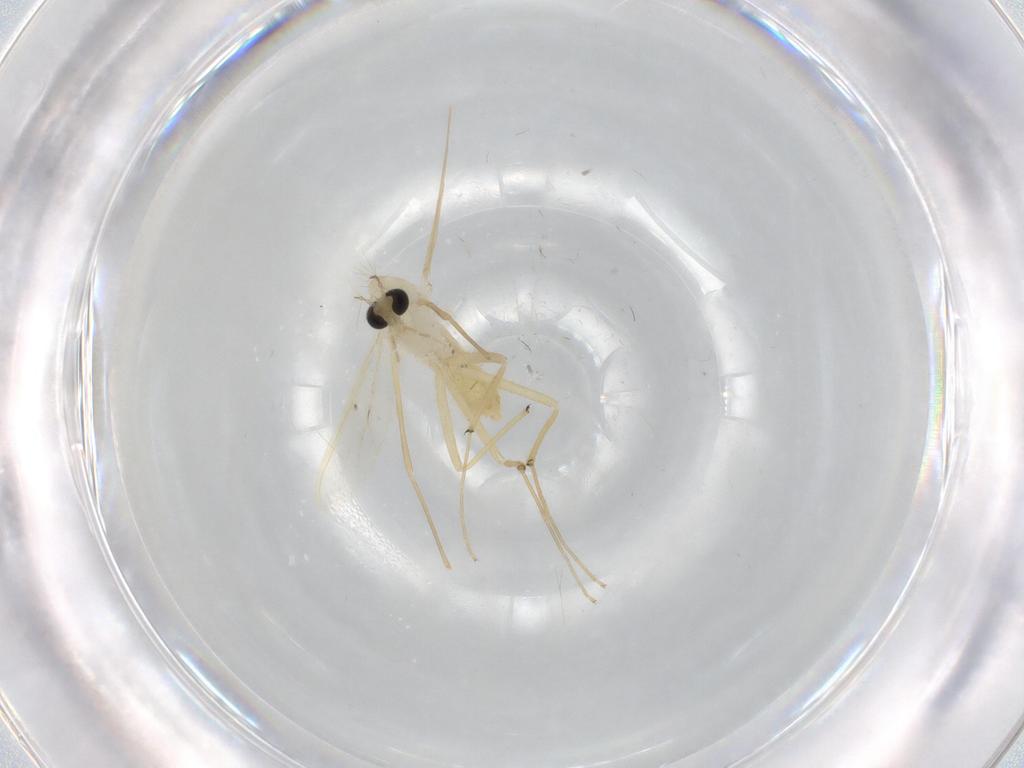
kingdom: Animalia
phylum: Arthropoda
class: Insecta
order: Diptera
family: Chironomidae
